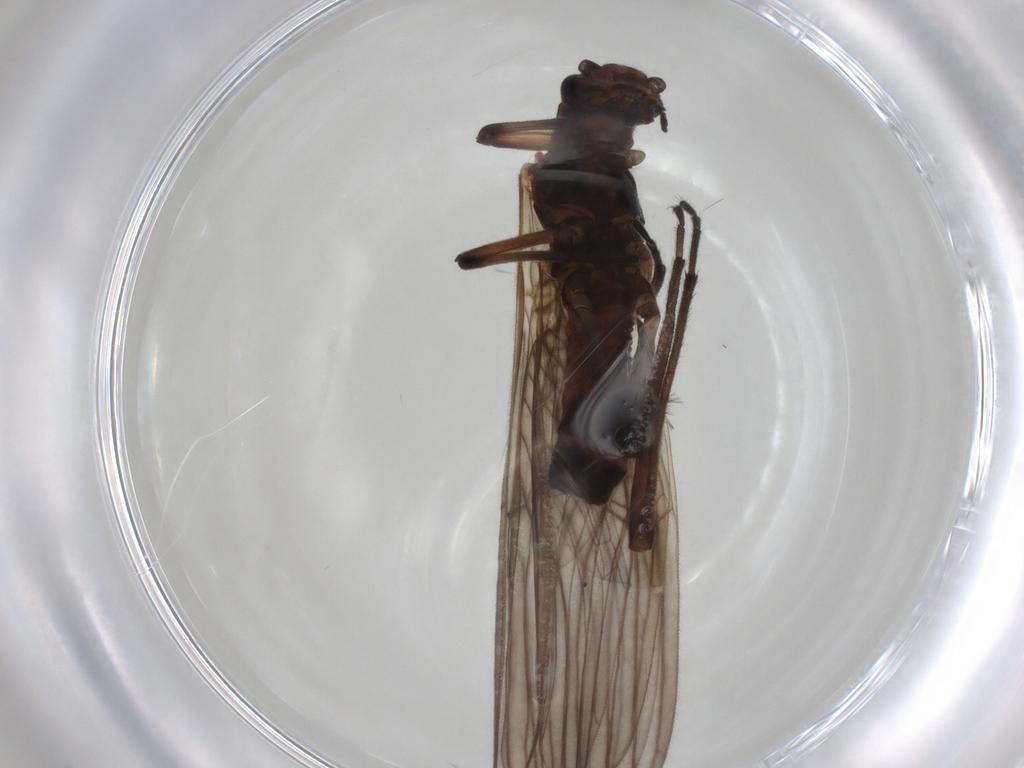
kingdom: Animalia
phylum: Arthropoda
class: Insecta
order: Plecoptera
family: Notonemouridae
